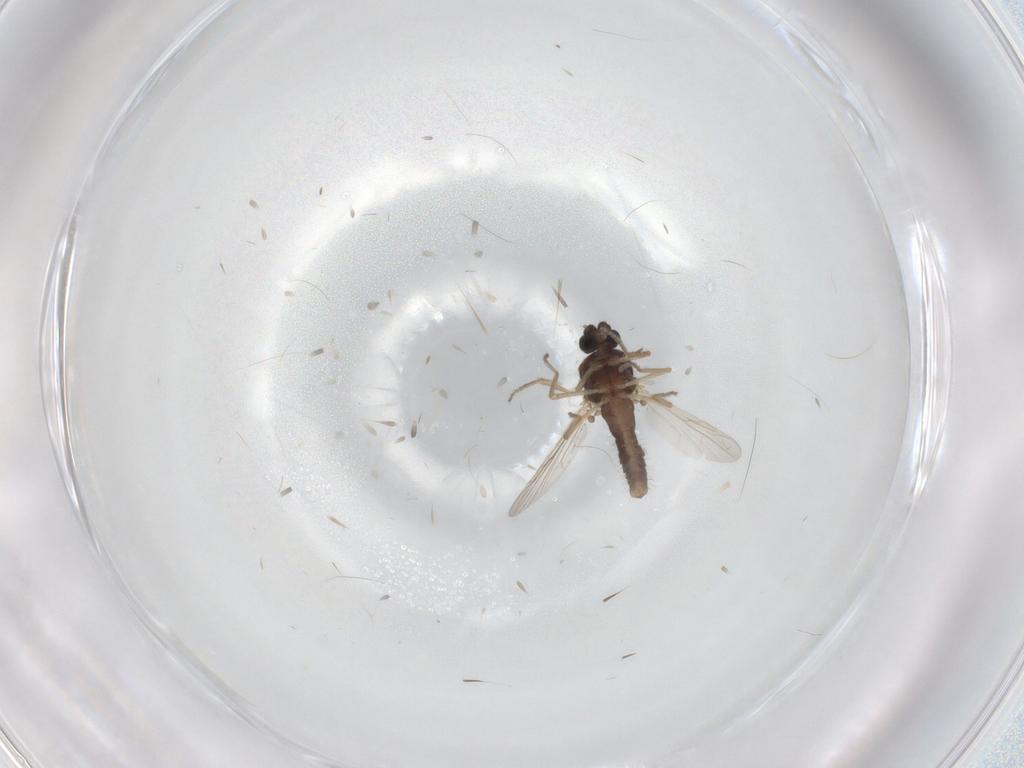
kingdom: Animalia
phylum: Arthropoda
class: Insecta
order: Diptera
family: Ceratopogonidae
